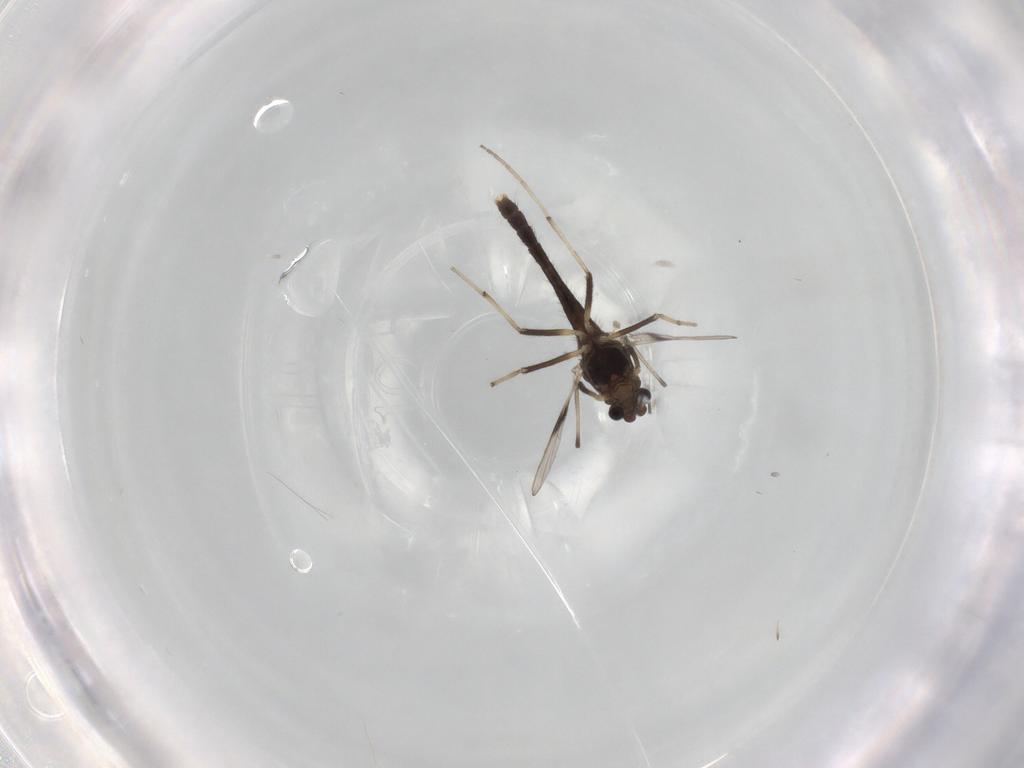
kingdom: Animalia
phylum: Arthropoda
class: Insecta
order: Diptera
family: Chironomidae
